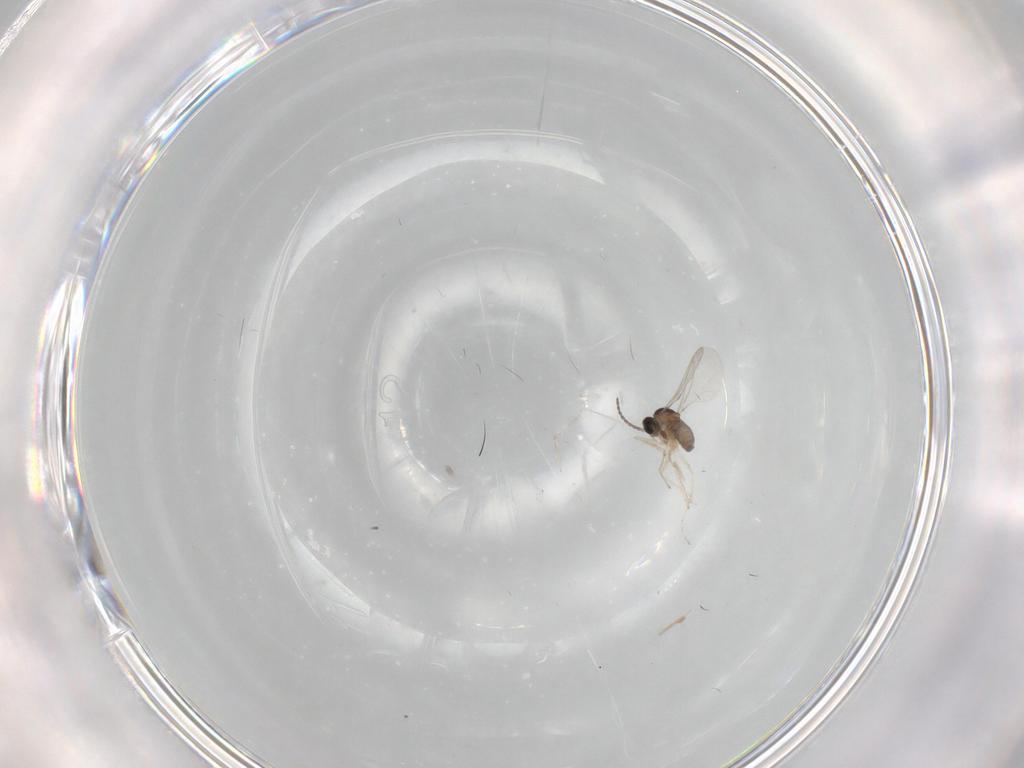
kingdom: Animalia
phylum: Arthropoda
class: Insecta
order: Diptera
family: Cecidomyiidae
